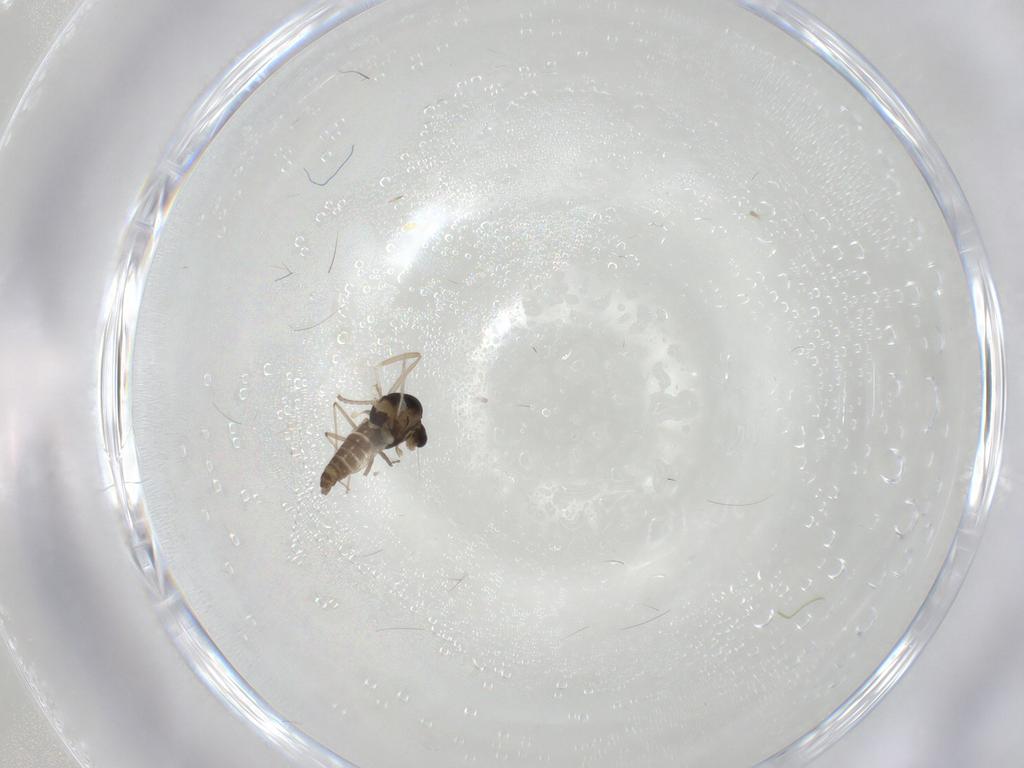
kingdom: Animalia
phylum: Arthropoda
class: Insecta
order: Diptera
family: Chironomidae
